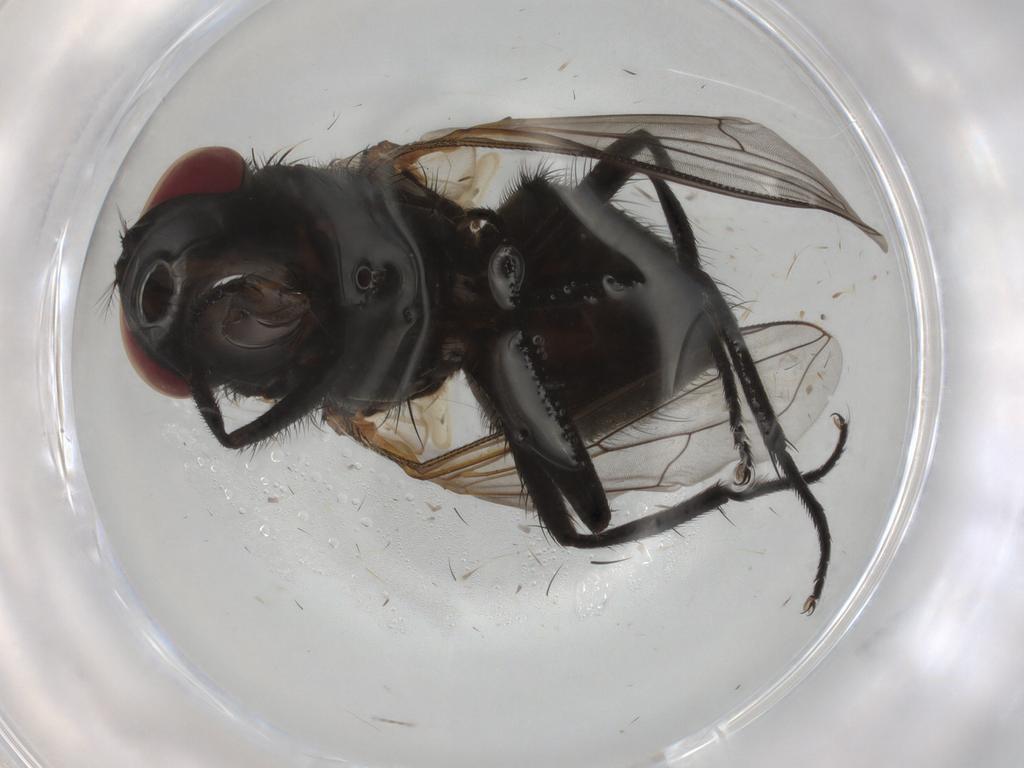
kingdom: Animalia
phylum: Arthropoda
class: Insecta
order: Diptera
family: Muscidae
